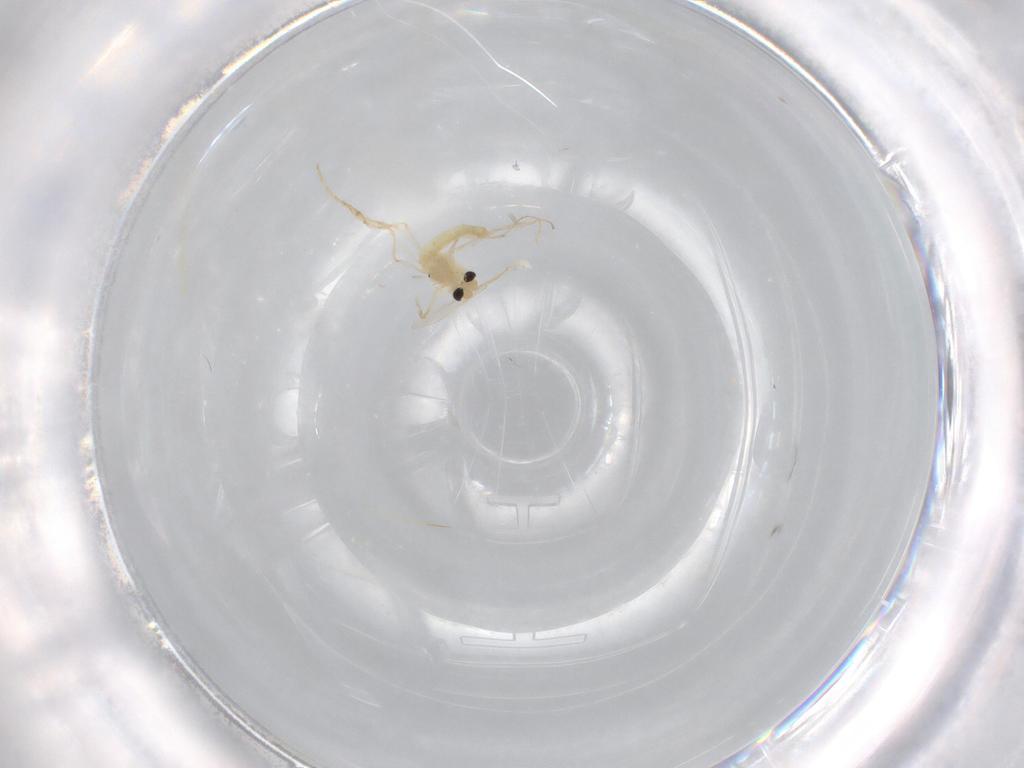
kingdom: Animalia
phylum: Arthropoda
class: Insecta
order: Diptera
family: Chironomidae
